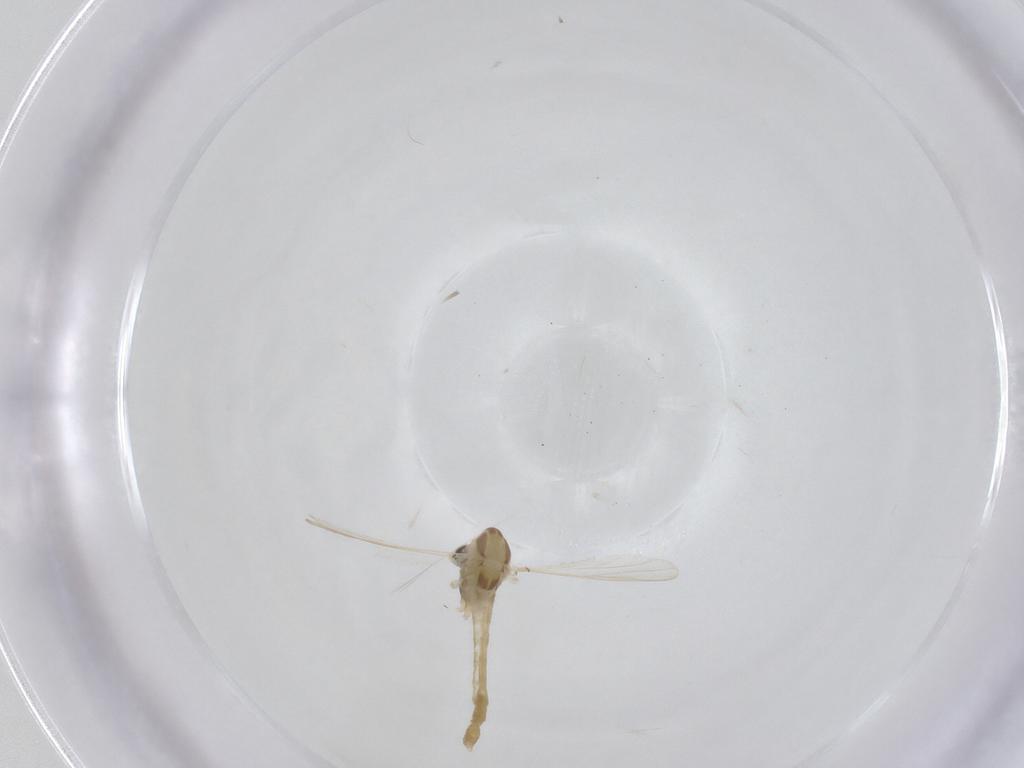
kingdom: Animalia
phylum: Arthropoda
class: Insecta
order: Diptera
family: Chironomidae
